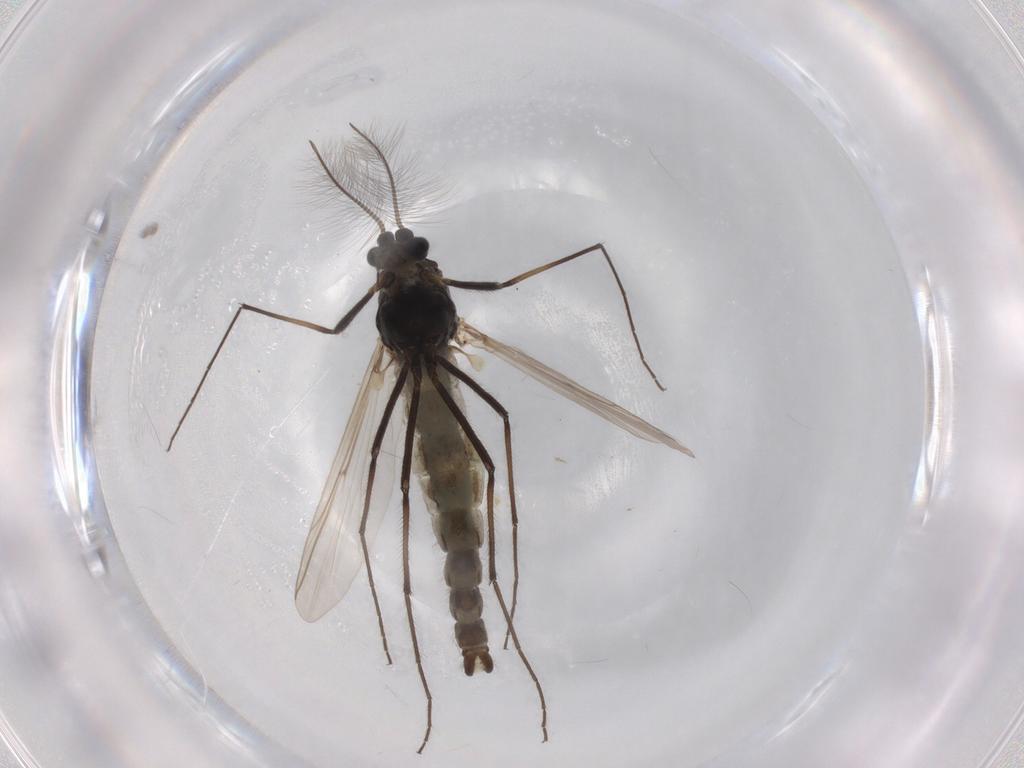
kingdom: Animalia
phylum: Arthropoda
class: Insecta
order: Diptera
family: Chironomidae
